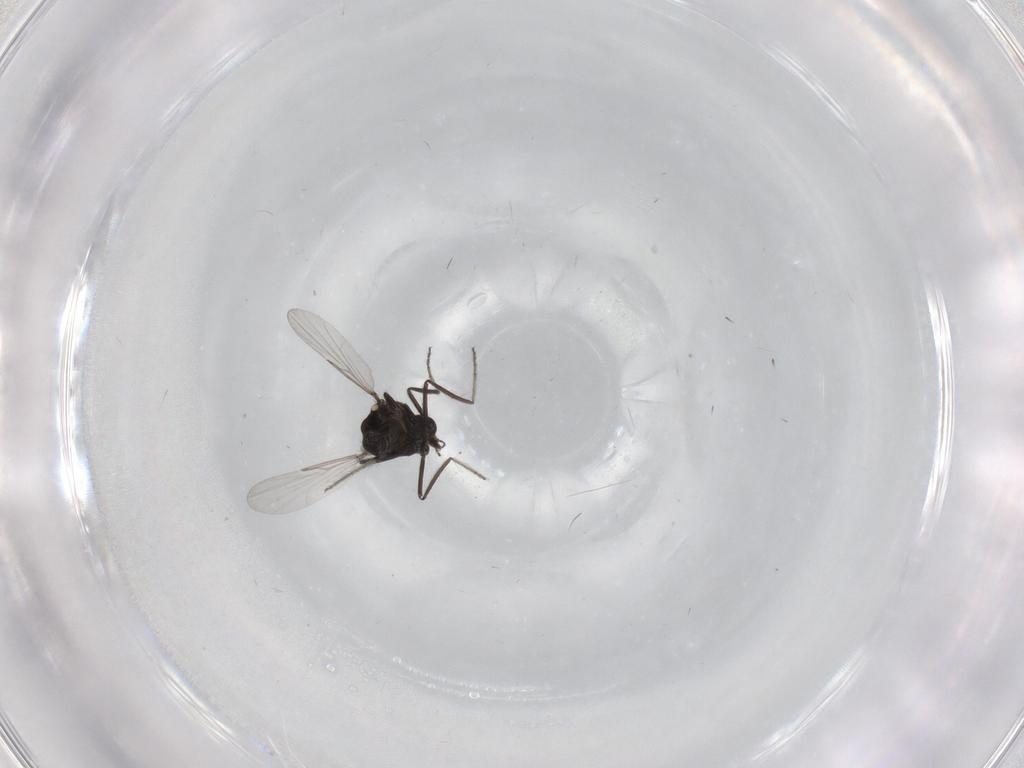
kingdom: Animalia
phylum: Arthropoda
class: Insecta
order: Diptera
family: Ceratopogonidae
